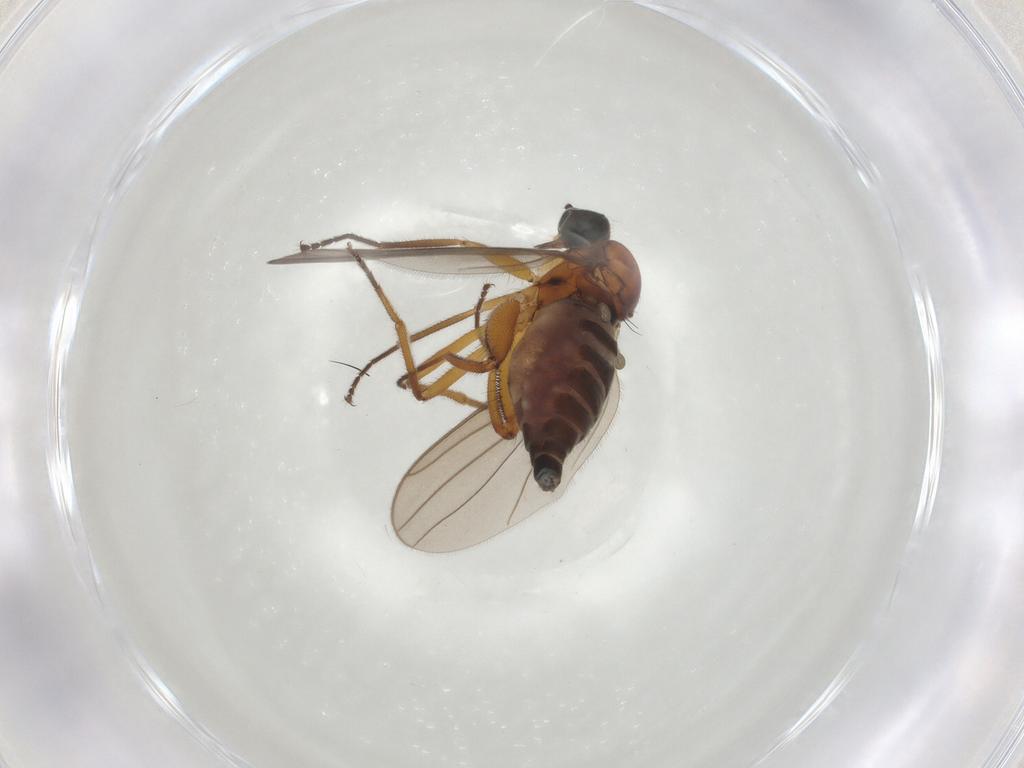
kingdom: Animalia
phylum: Arthropoda
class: Insecta
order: Diptera
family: Hybotidae
